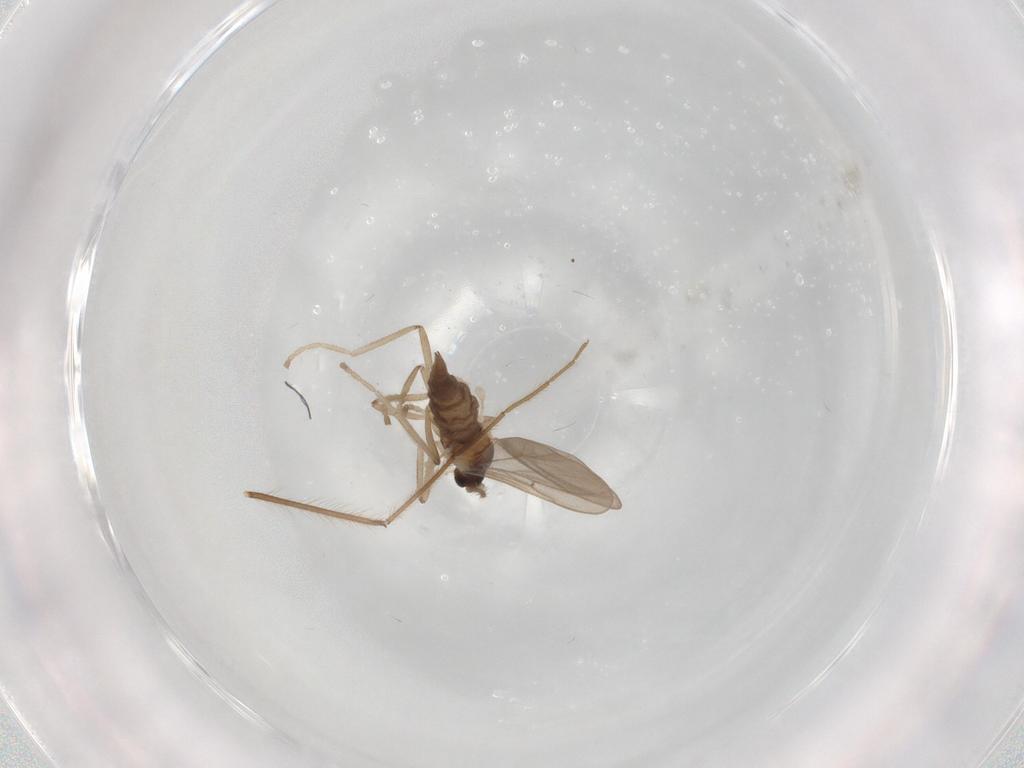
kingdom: Animalia
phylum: Arthropoda
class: Insecta
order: Diptera
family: Cecidomyiidae
